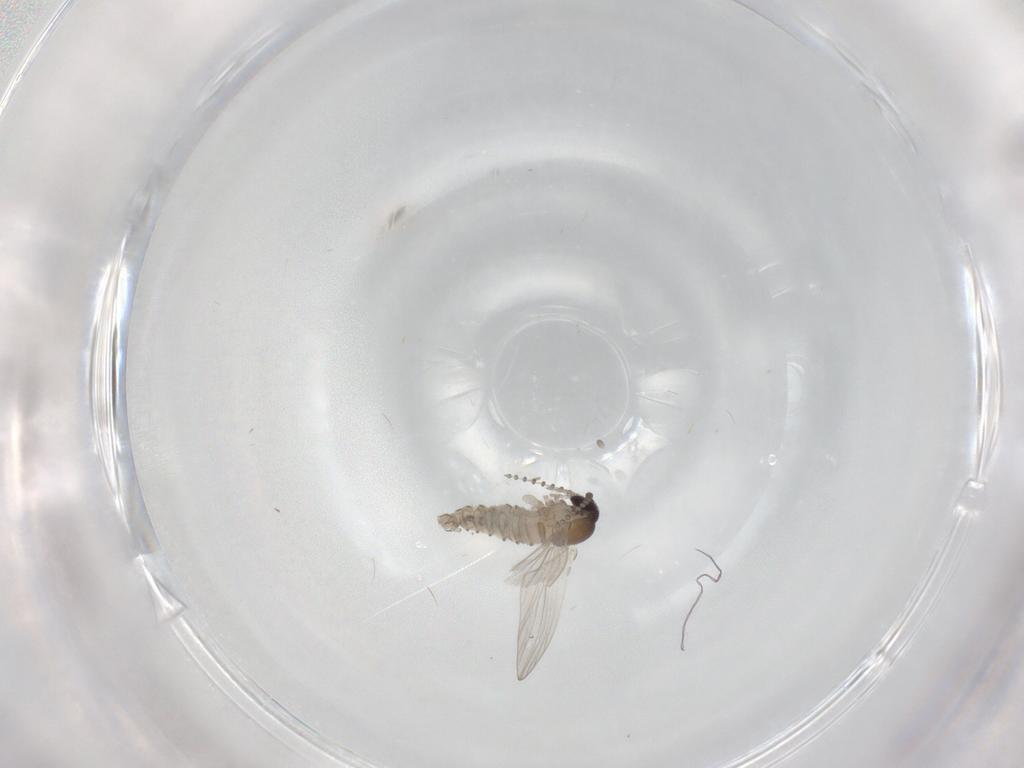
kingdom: Animalia
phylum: Arthropoda
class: Insecta
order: Diptera
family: Psychodidae
